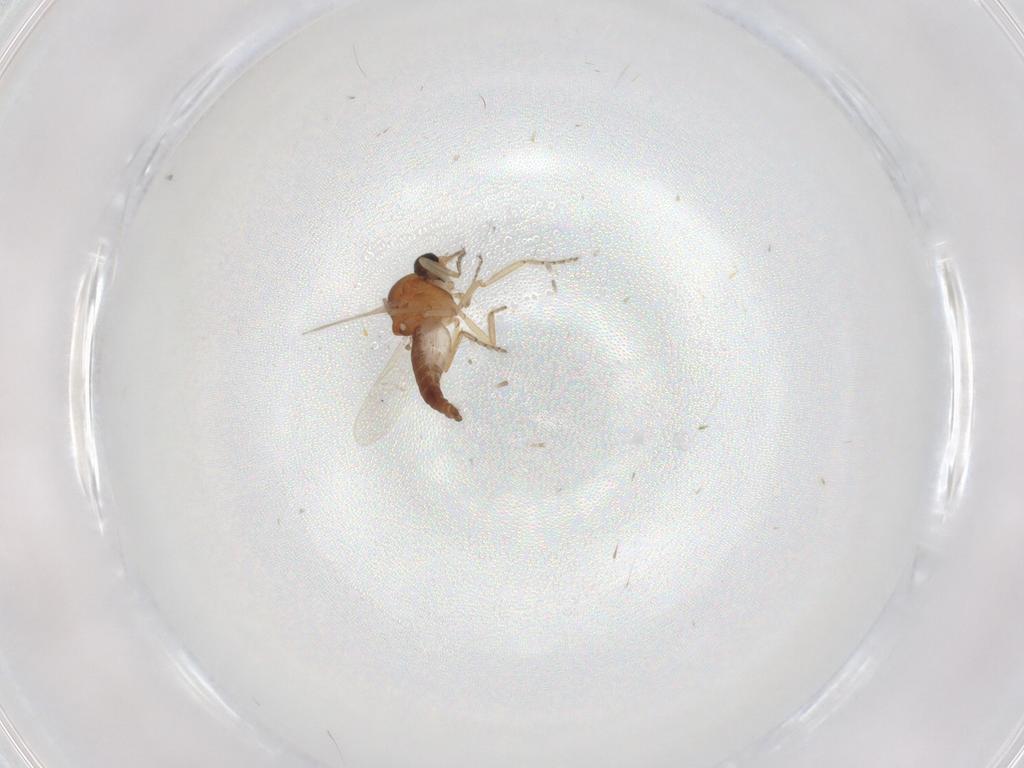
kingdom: Animalia
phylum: Arthropoda
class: Insecta
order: Diptera
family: Ceratopogonidae
